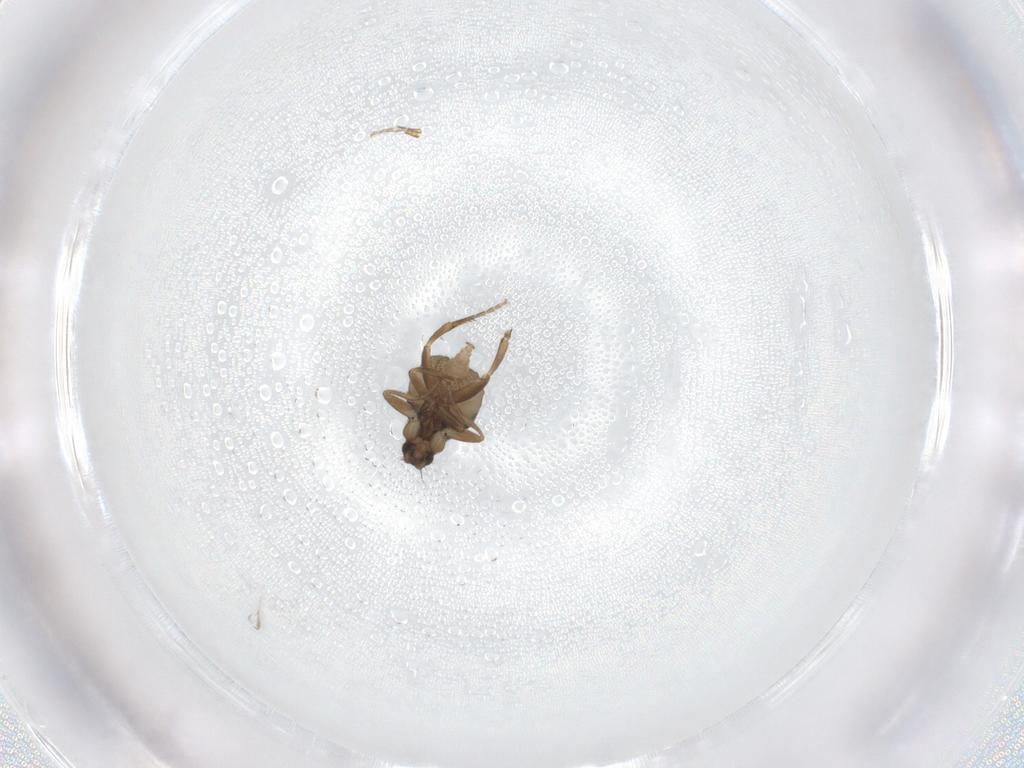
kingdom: Animalia
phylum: Arthropoda
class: Insecta
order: Diptera
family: Phoridae
